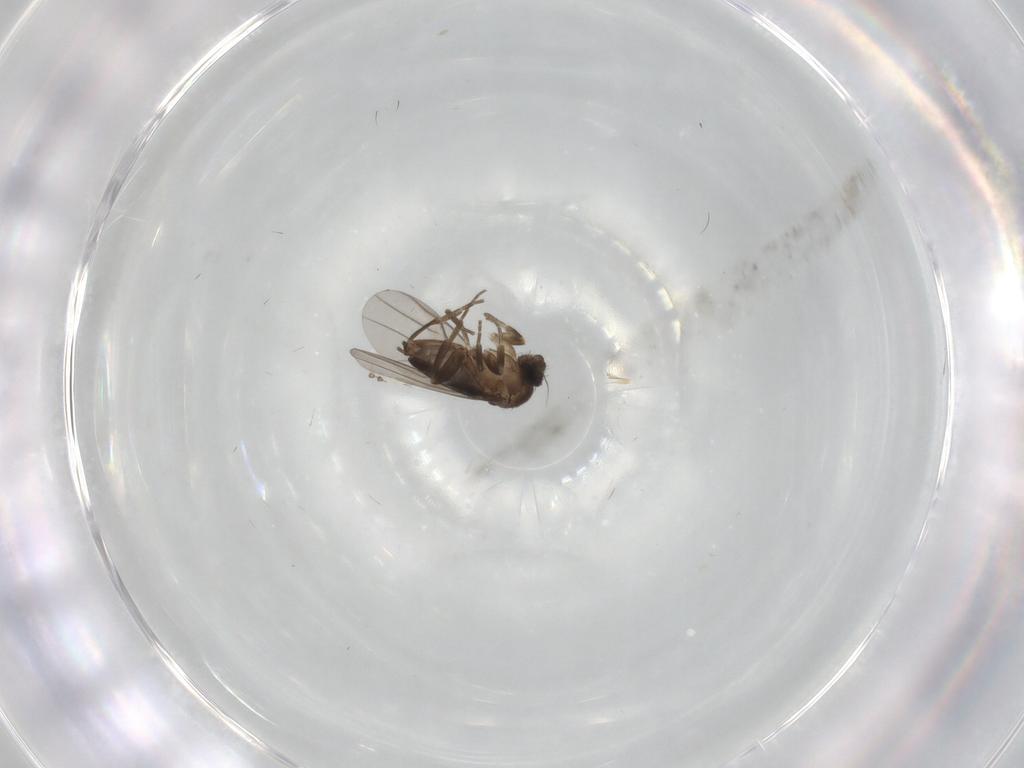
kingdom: Animalia
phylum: Arthropoda
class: Insecta
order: Diptera
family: Chironomidae
